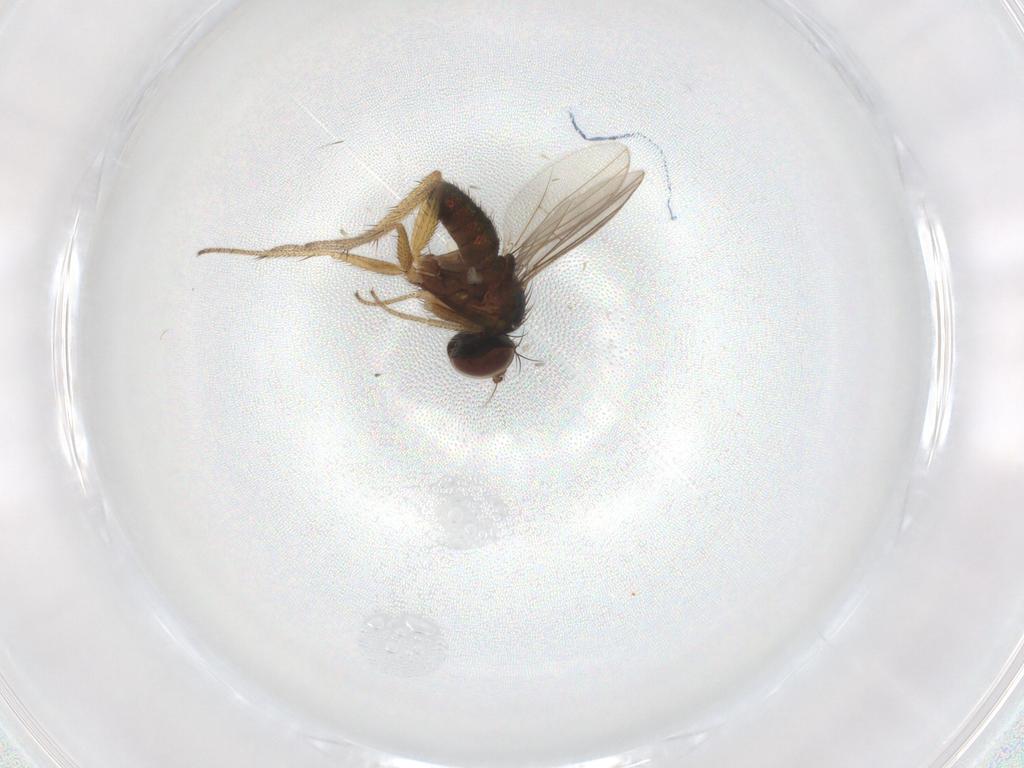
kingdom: Animalia
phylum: Arthropoda
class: Insecta
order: Diptera
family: Dolichopodidae
